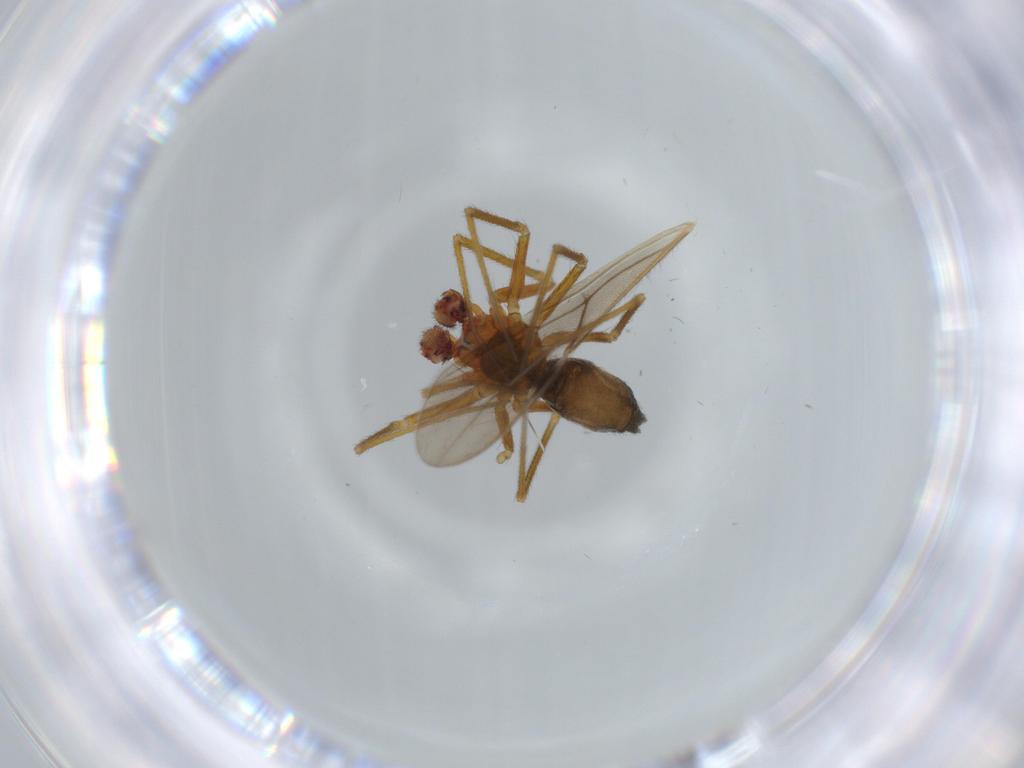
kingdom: Animalia
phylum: Arthropoda
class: Arachnida
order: Araneae
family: Linyphiidae
